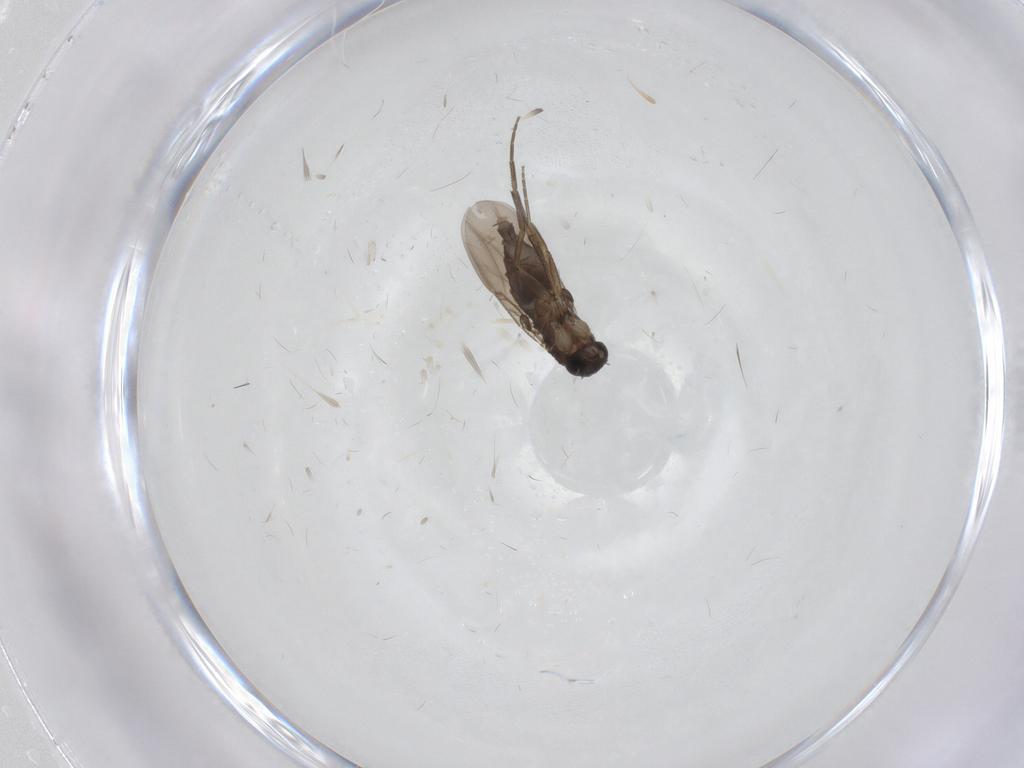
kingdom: Animalia
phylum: Arthropoda
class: Insecta
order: Diptera
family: Phoridae
